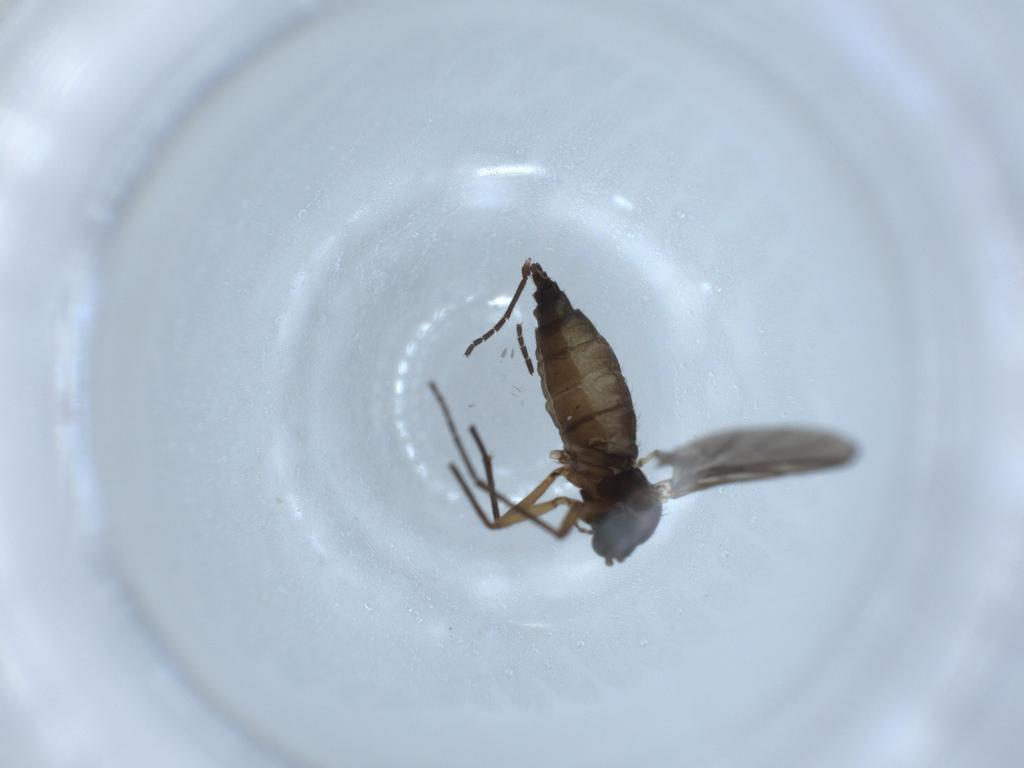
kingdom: Animalia
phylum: Arthropoda
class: Insecta
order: Diptera
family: Sciaridae
